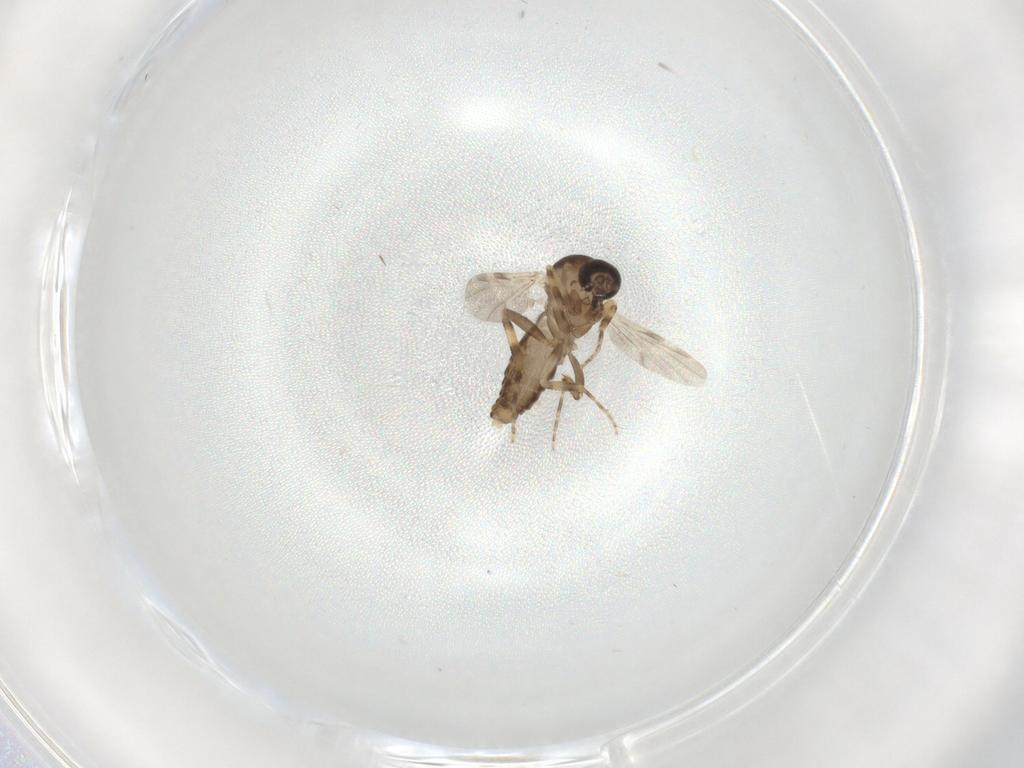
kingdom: Animalia
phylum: Arthropoda
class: Insecta
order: Diptera
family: Ceratopogonidae
